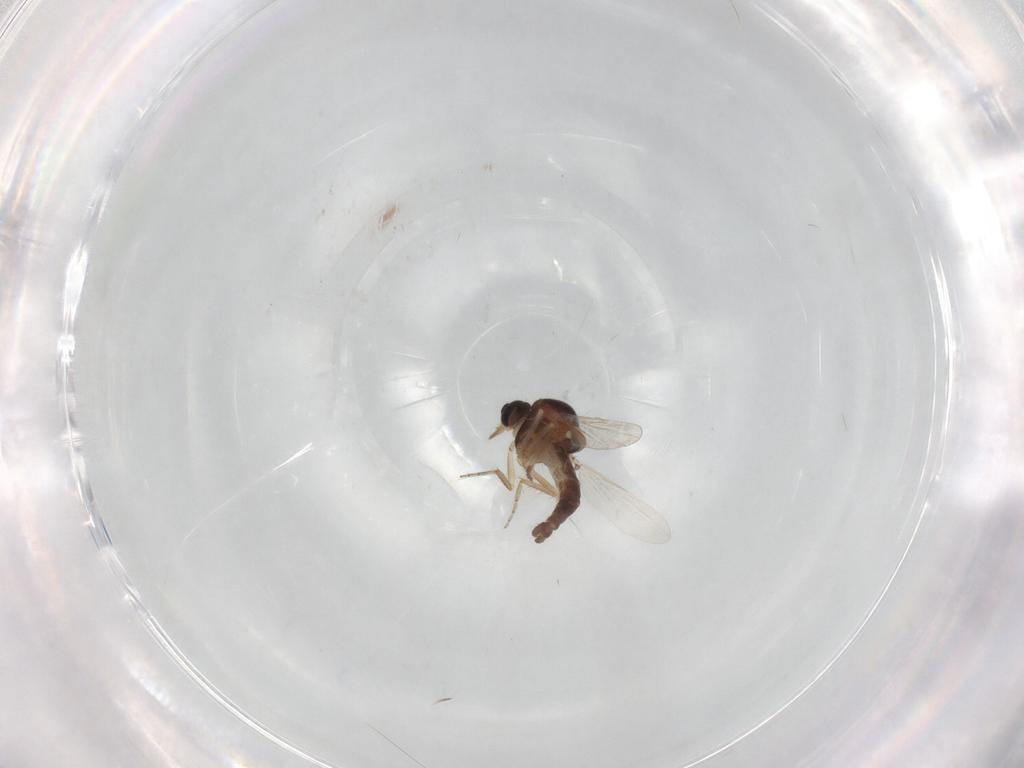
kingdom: Animalia
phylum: Arthropoda
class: Insecta
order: Diptera
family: Ceratopogonidae
